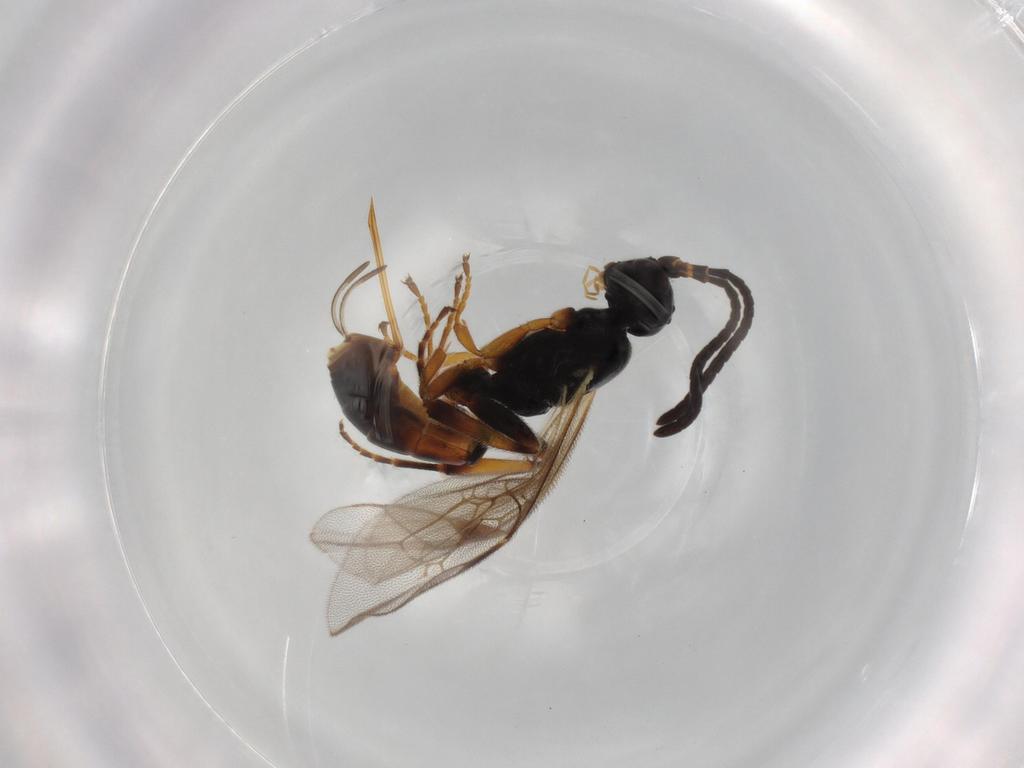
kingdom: Animalia
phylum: Arthropoda
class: Insecta
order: Hymenoptera
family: Ichneumonidae
